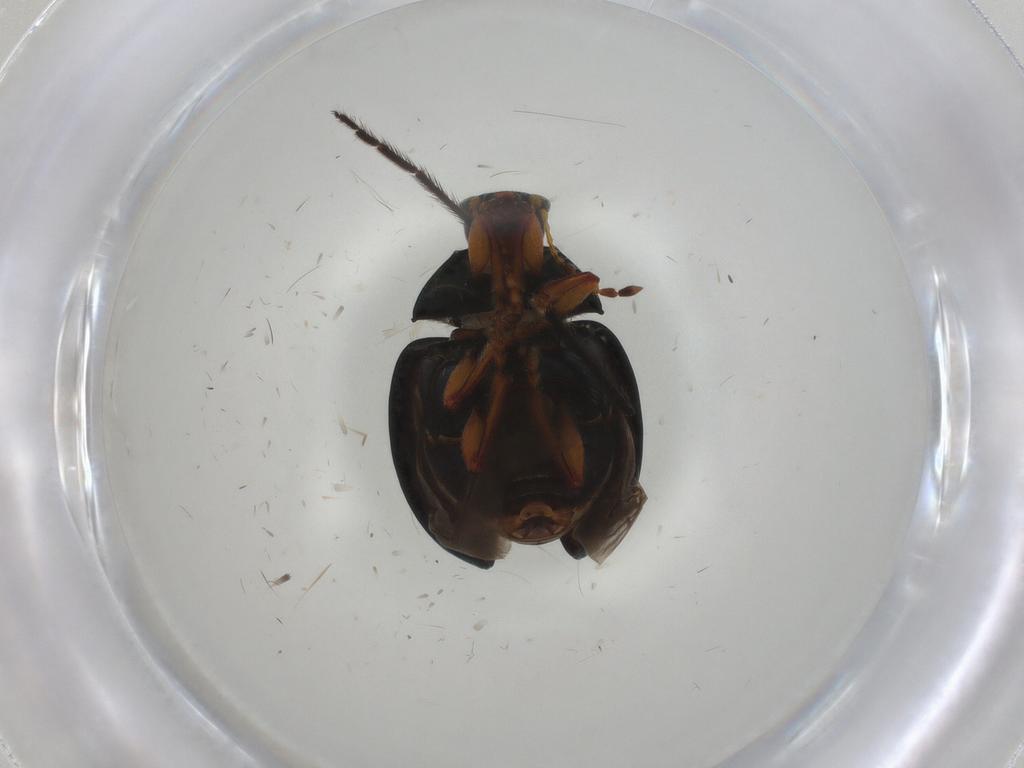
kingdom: Animalia
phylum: Arthropoda
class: Insecta
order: Coleoptera
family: Chrysomelidae
